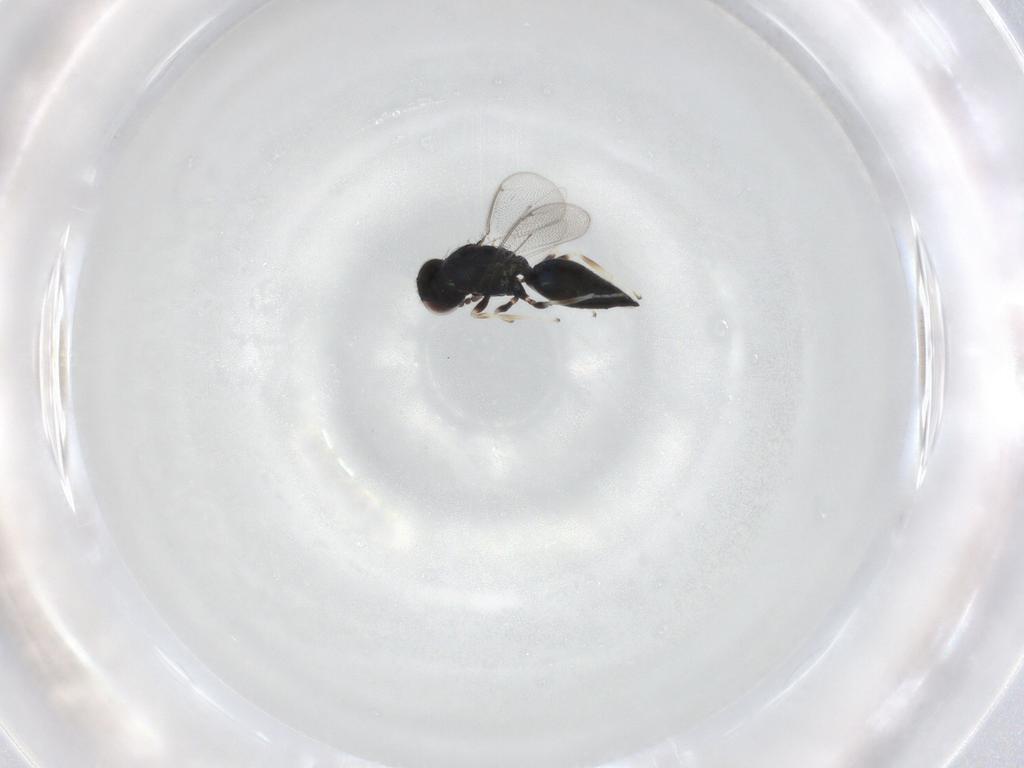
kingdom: Animalia
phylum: Arthropoda
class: Insecta
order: Hymenoptera
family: Eulophidae
